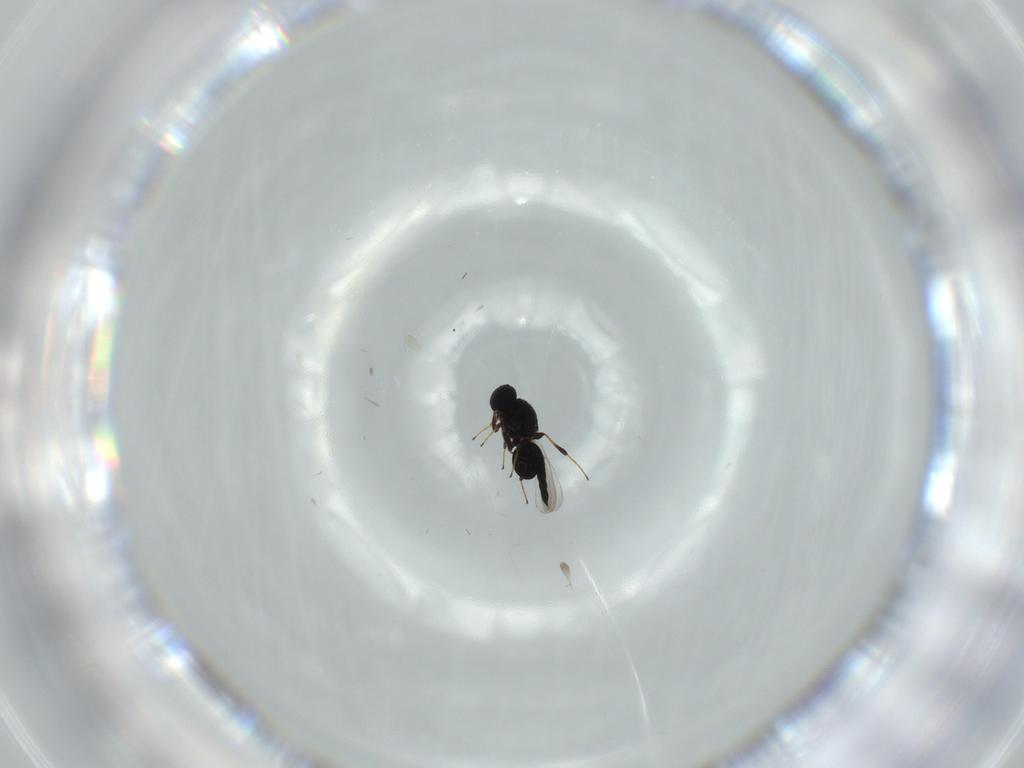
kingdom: Animalia
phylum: Arthropoda
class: Insecta
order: Hymenoptera
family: Platygastridae
